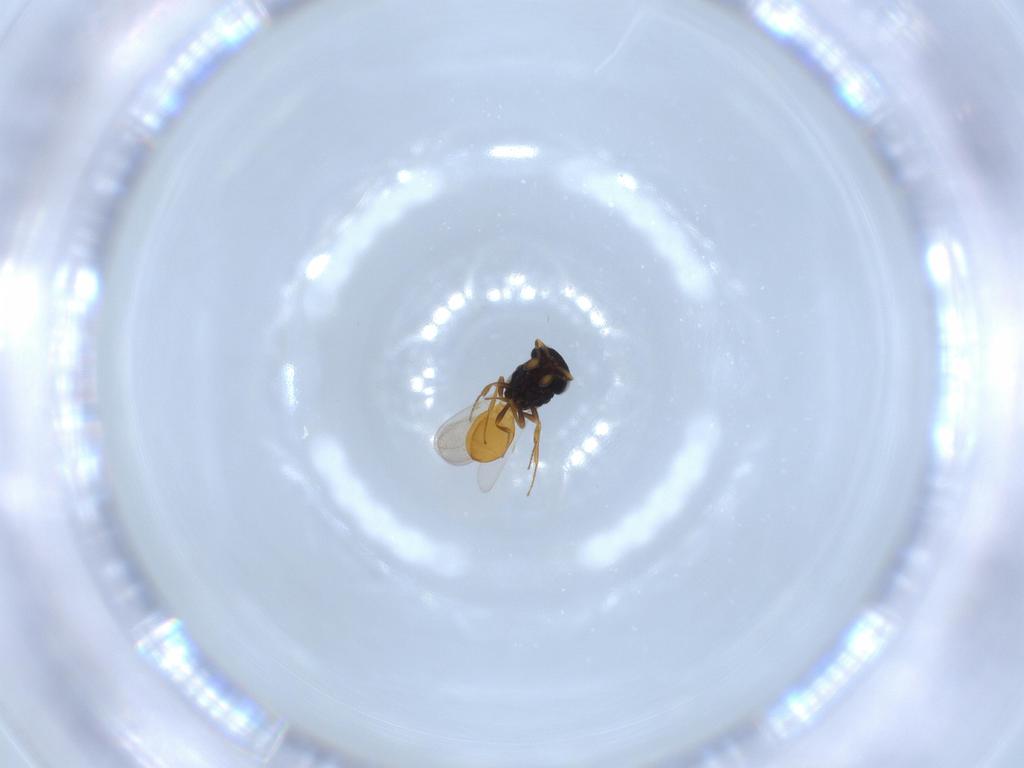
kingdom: Animalia
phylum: Arthropoda
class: Insecta
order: Hymenoptera
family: Scelionidae
